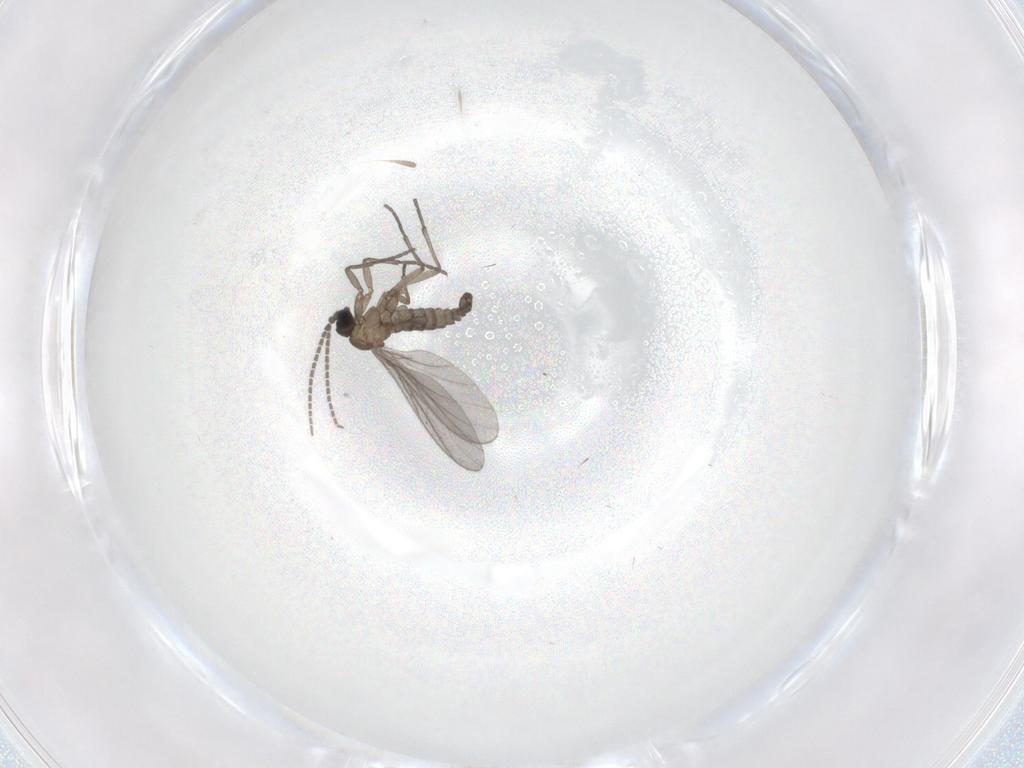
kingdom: Animalia
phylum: Arthropoda
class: Insecta
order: Diptera
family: Sciaridae
